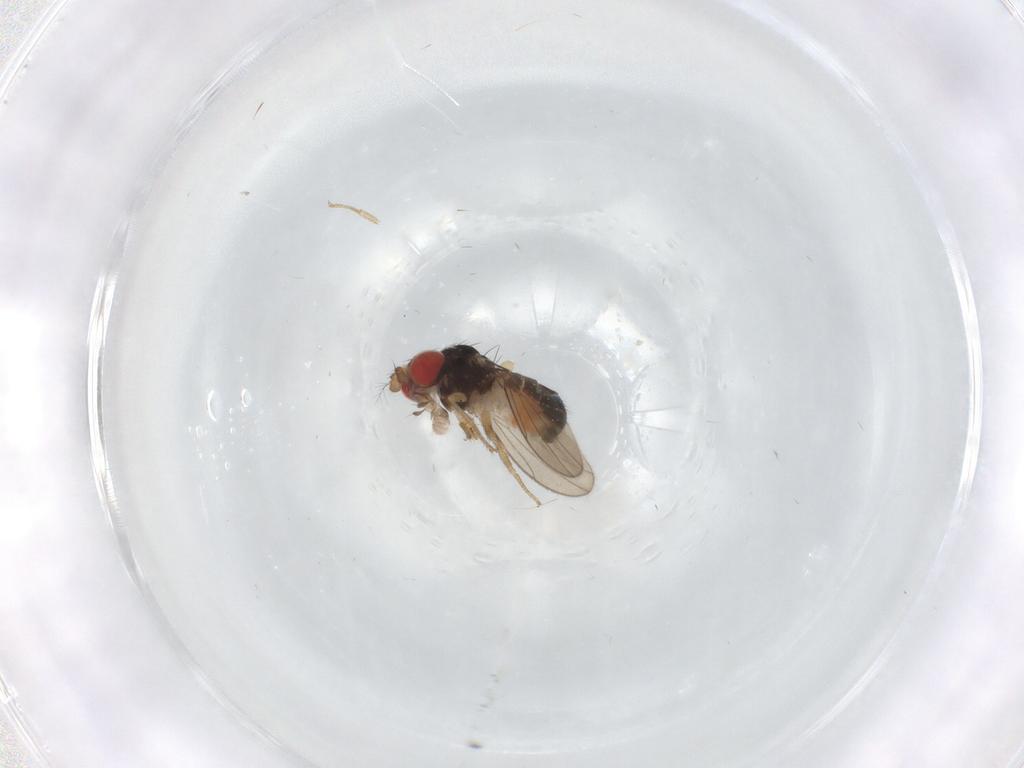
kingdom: Animalia
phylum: Arthropoda
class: Insecta
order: Diptera
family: Drosophilidae
